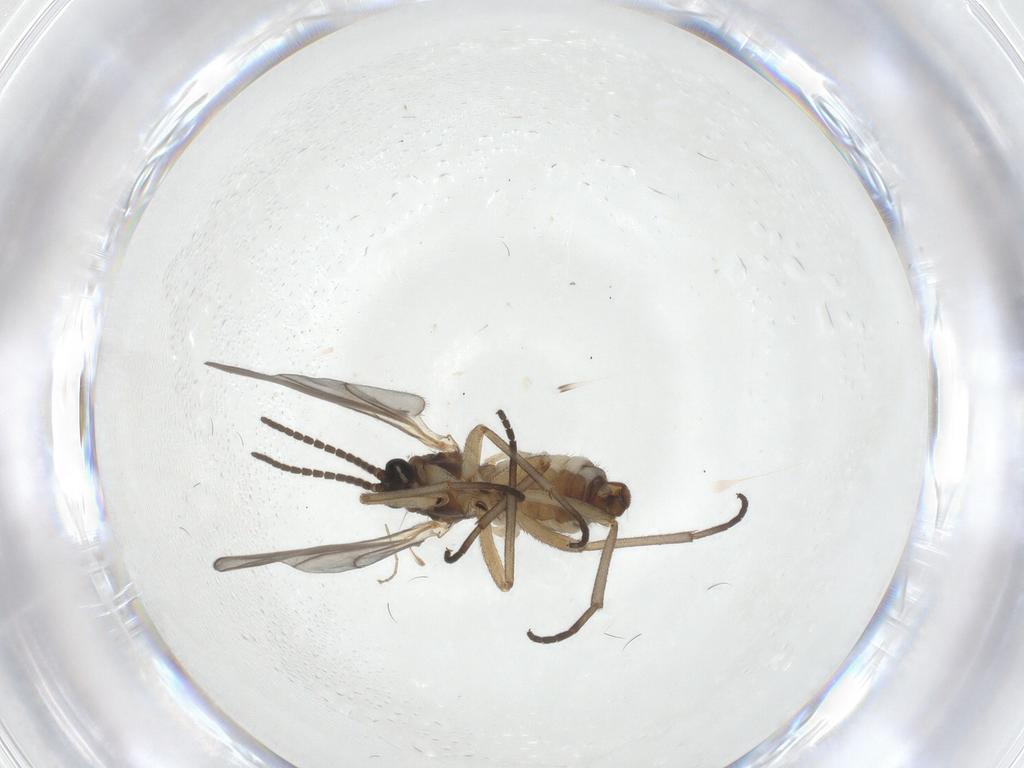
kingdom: Animalia
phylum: Arthropoda
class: Insecta
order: Diptera
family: Sciaridae
